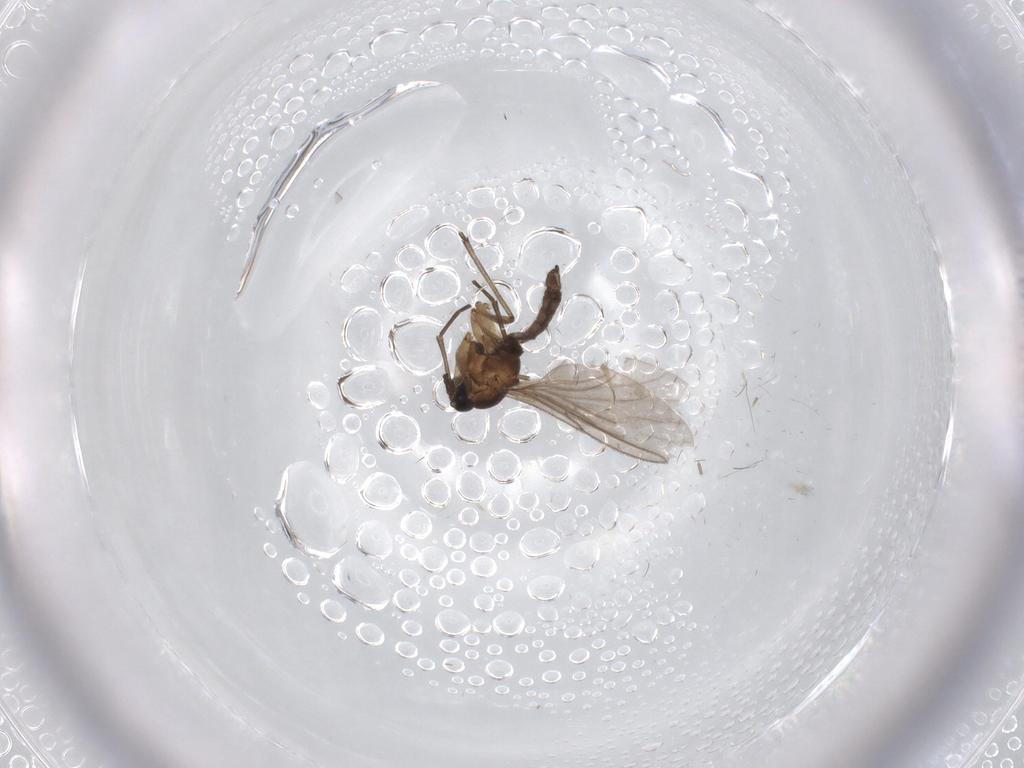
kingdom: Animalia
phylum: Arthropoda
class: Insecta
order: Diptera
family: Sciaridae
